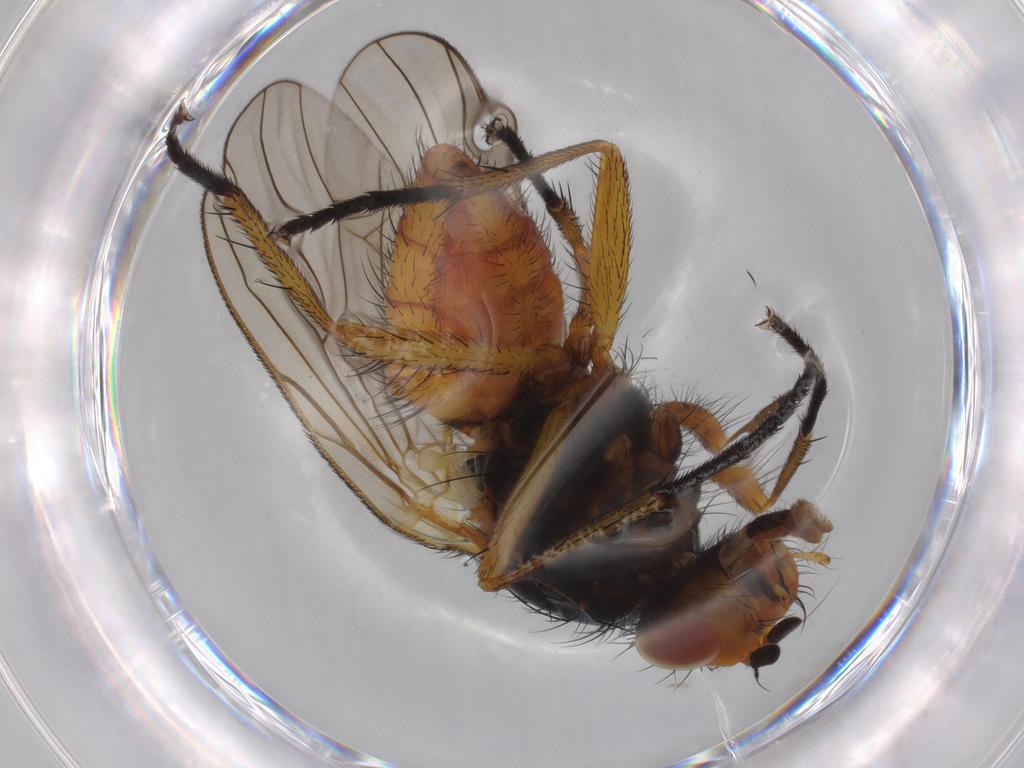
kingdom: Animalia
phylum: Arthropoda
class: Insecta
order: Diptera
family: Anthomyiidae
